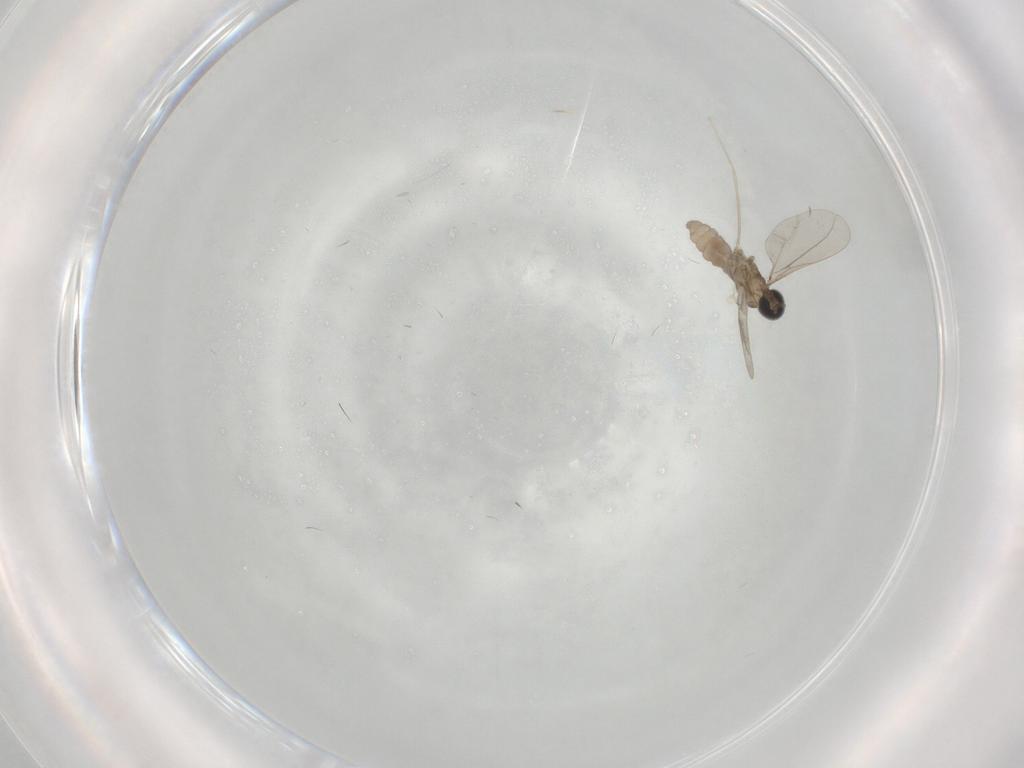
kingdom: Animalia
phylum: Arthropoda
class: Insecta
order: Diptera
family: Cecidomyiidae
